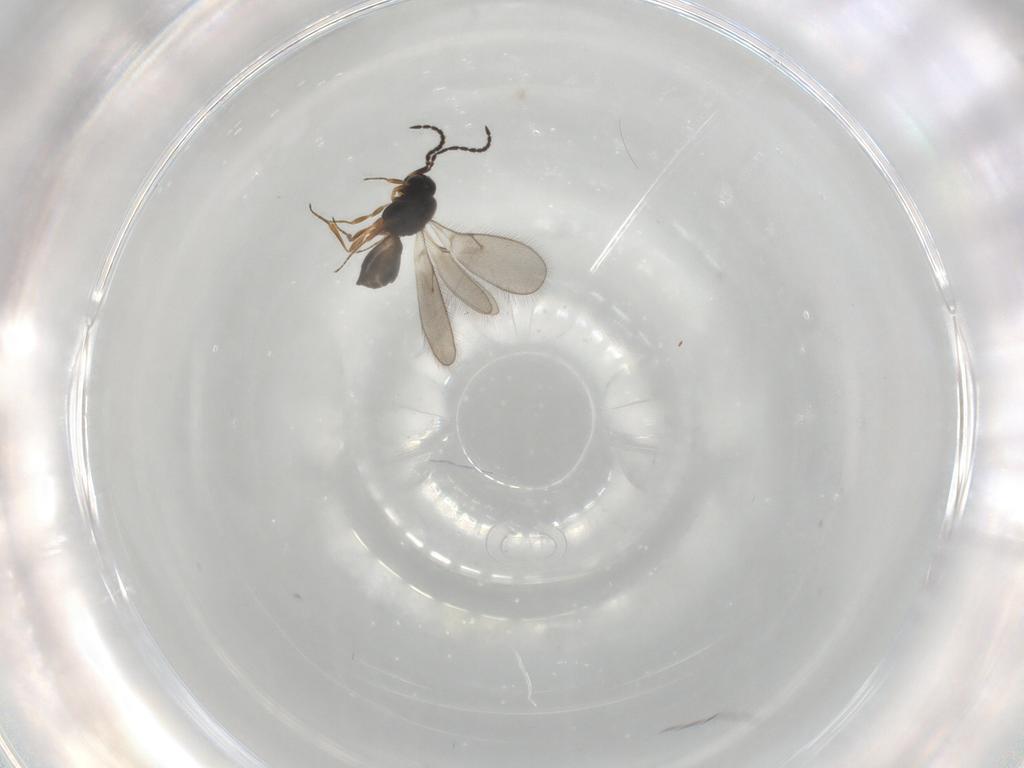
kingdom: Animalia
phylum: Arthropoda
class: Insecta
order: Hymenoptera
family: Scelionidae
